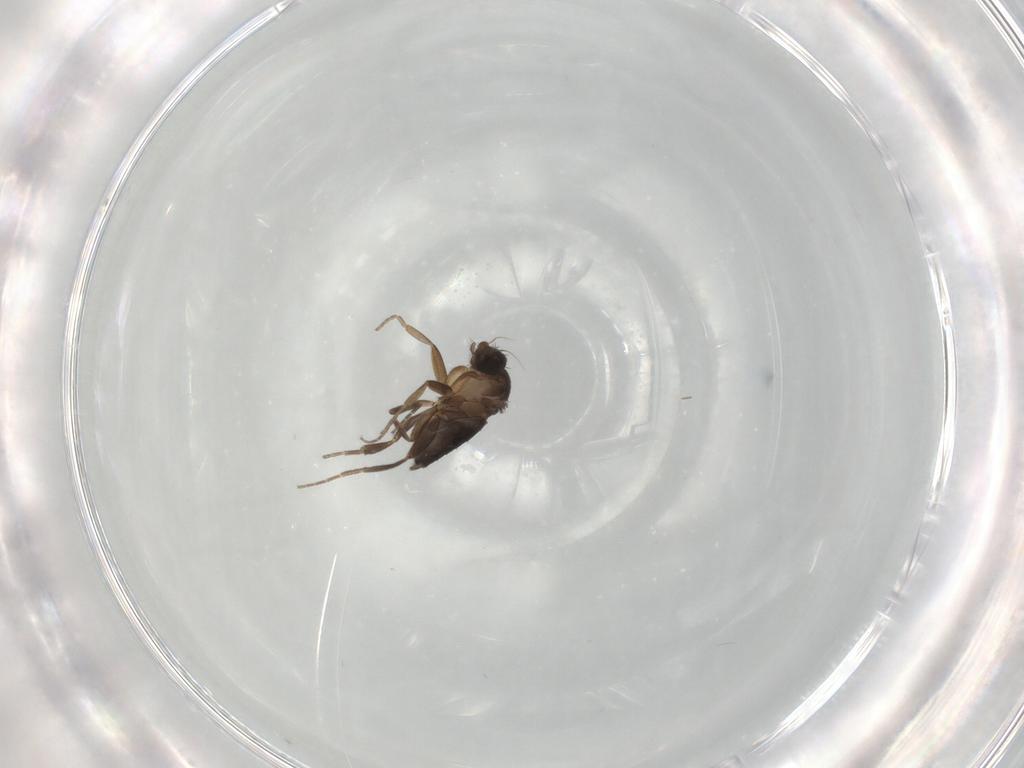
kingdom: Animalia
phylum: Arthropoda
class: Insecta
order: Diptera
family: Phoridae
